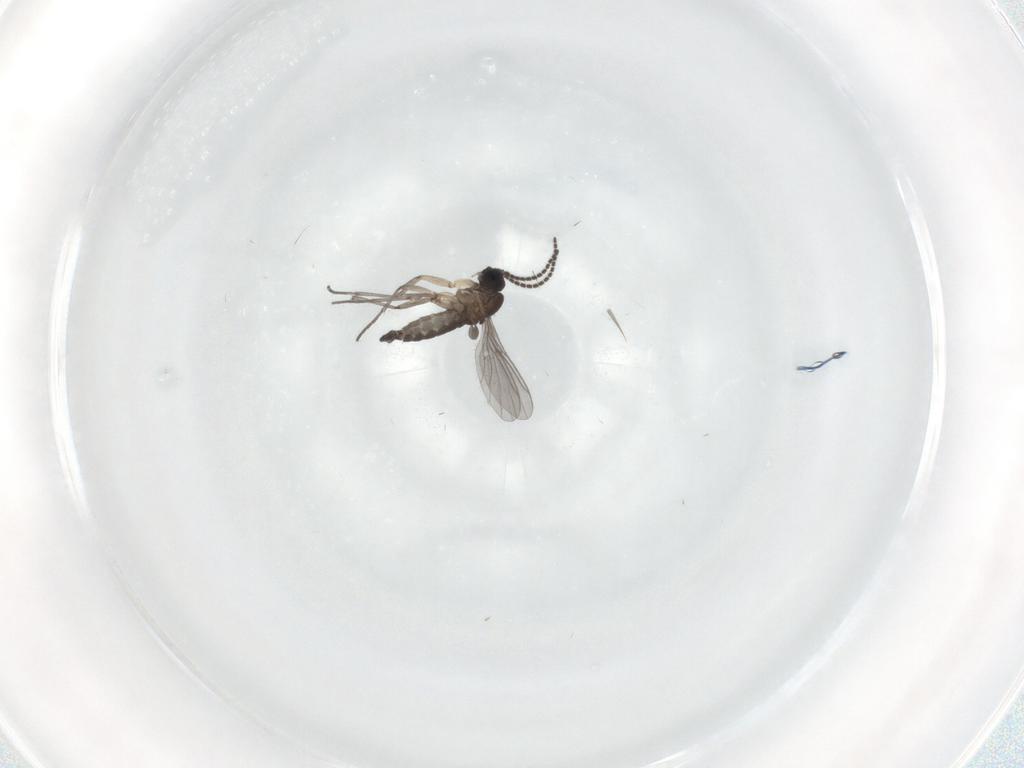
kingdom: Animalia
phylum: Arthropoda
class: Insecta
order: Diptera
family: Sciaridae
